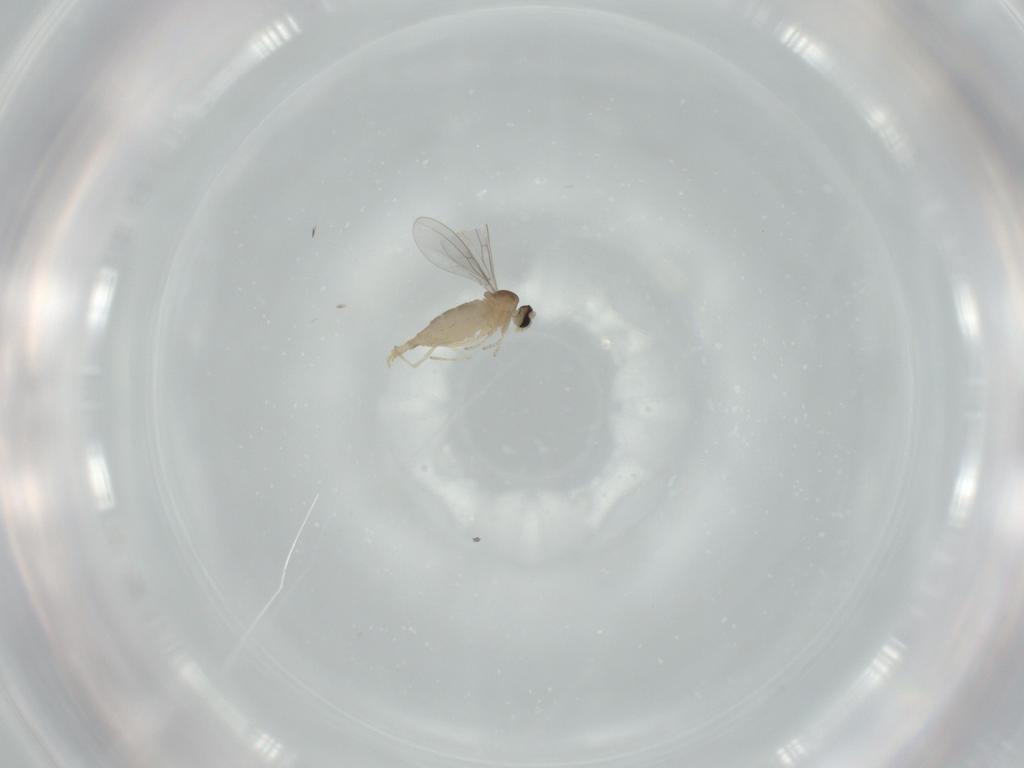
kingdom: Animalia
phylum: Arthropoda
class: Insecta
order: Diptera
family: Cecidomyiidae
